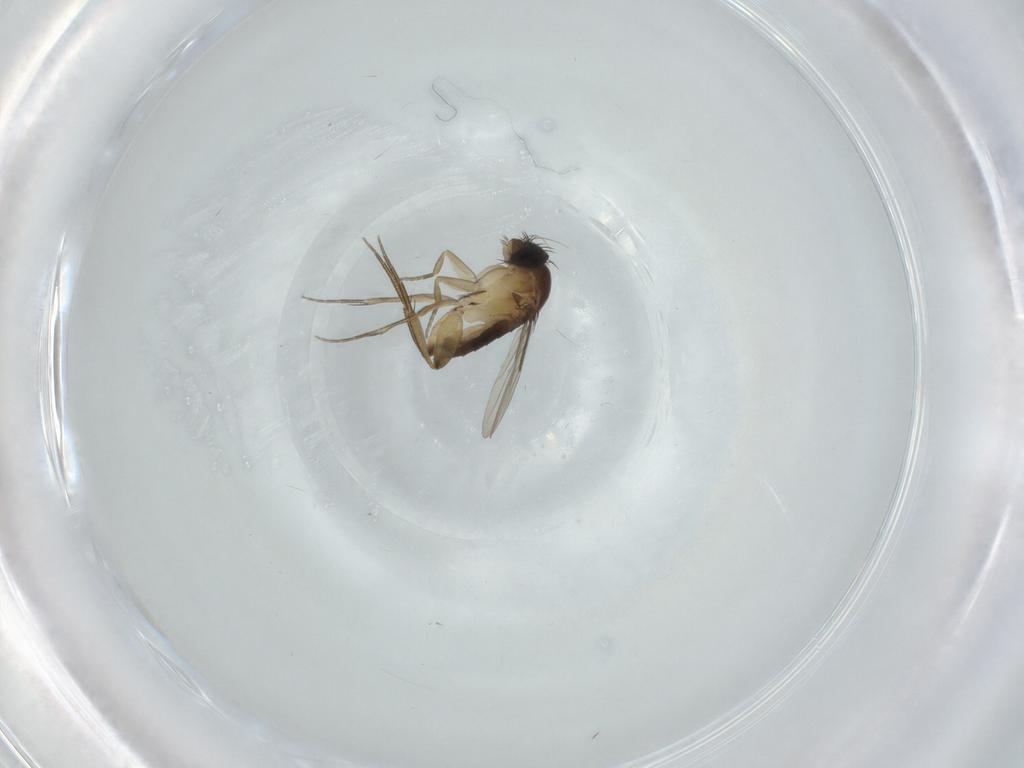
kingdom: Animalia
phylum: Arthropoda
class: Insecta
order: Diptera
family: Phoridae
